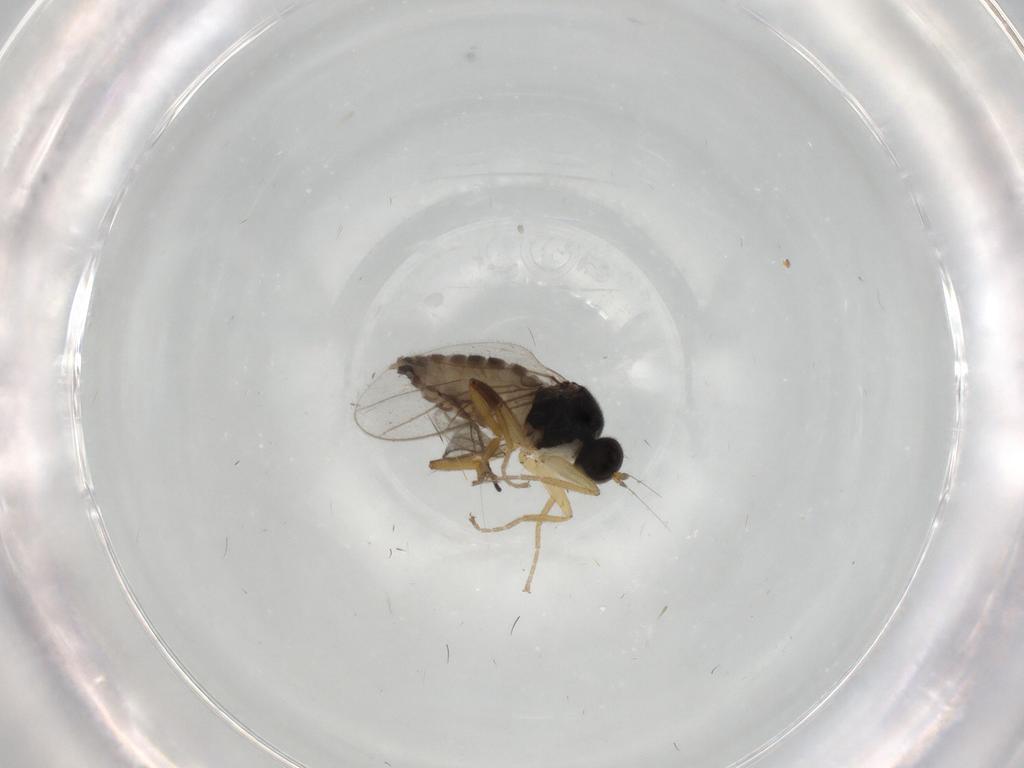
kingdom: Animalia
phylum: Arthropoda
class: Insecta
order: Diptera
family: Hybotidae
